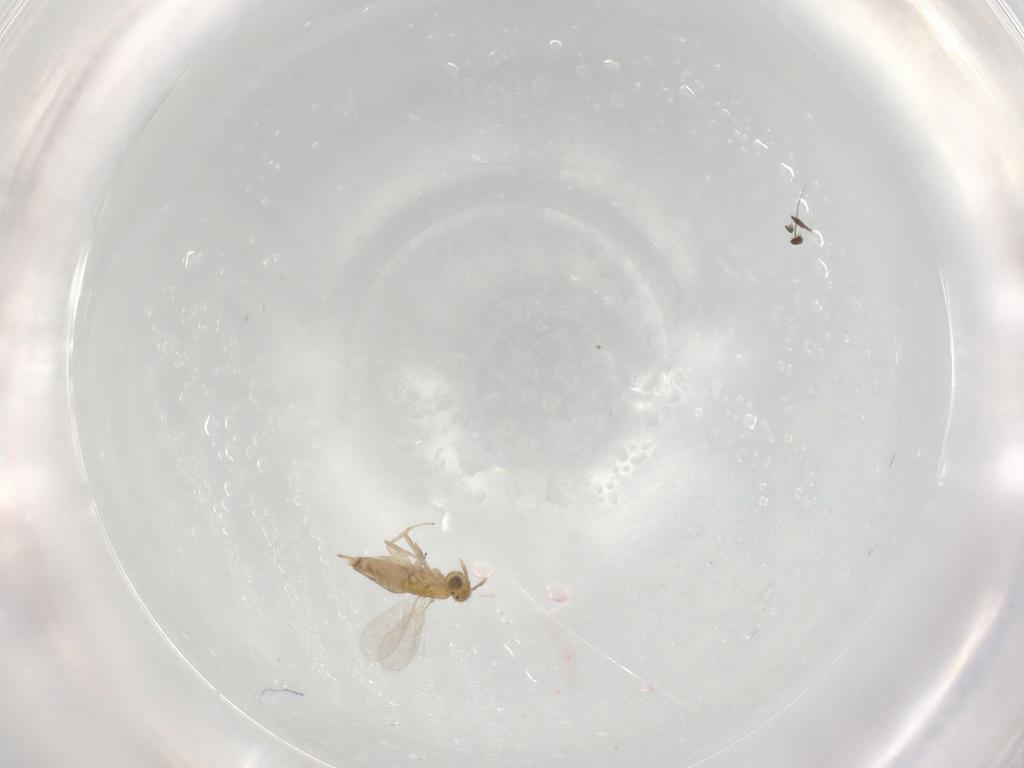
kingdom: Animalia
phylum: Arthropoda
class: Insecta
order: Hymenoptera
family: Aphelinidae
